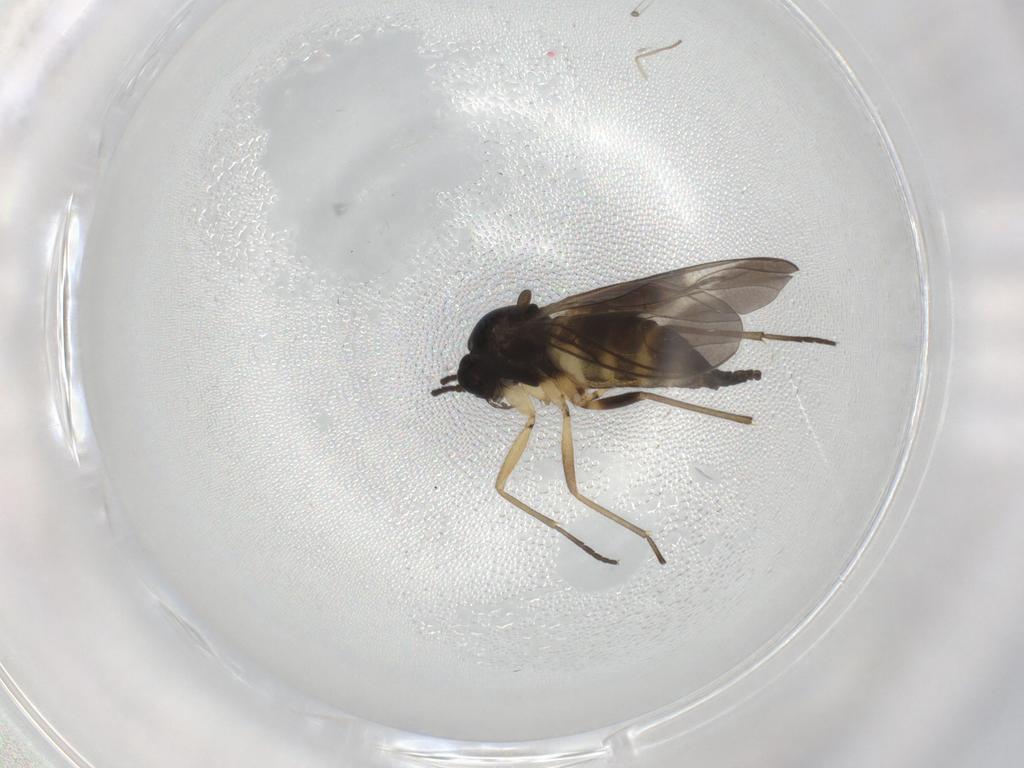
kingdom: Animalia
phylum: Arthropoda
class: Insecta
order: Diptera
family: Sciaridae
